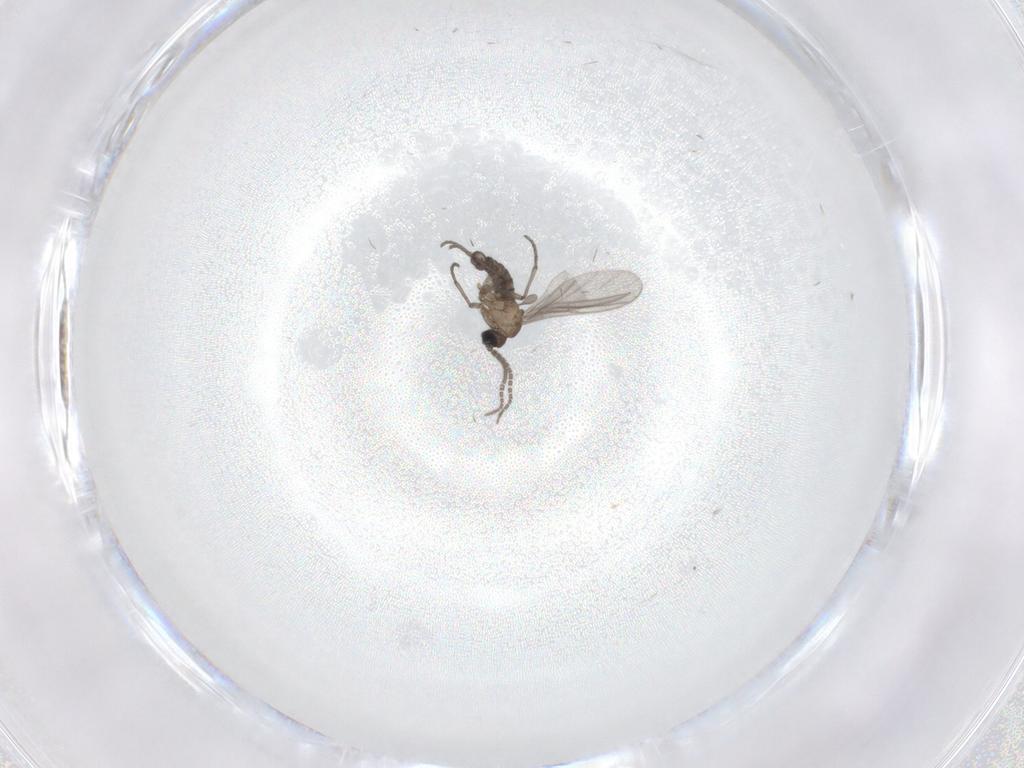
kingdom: Animalia
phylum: Arthropoda
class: Insecta
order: Diptera
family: Sciaridae
